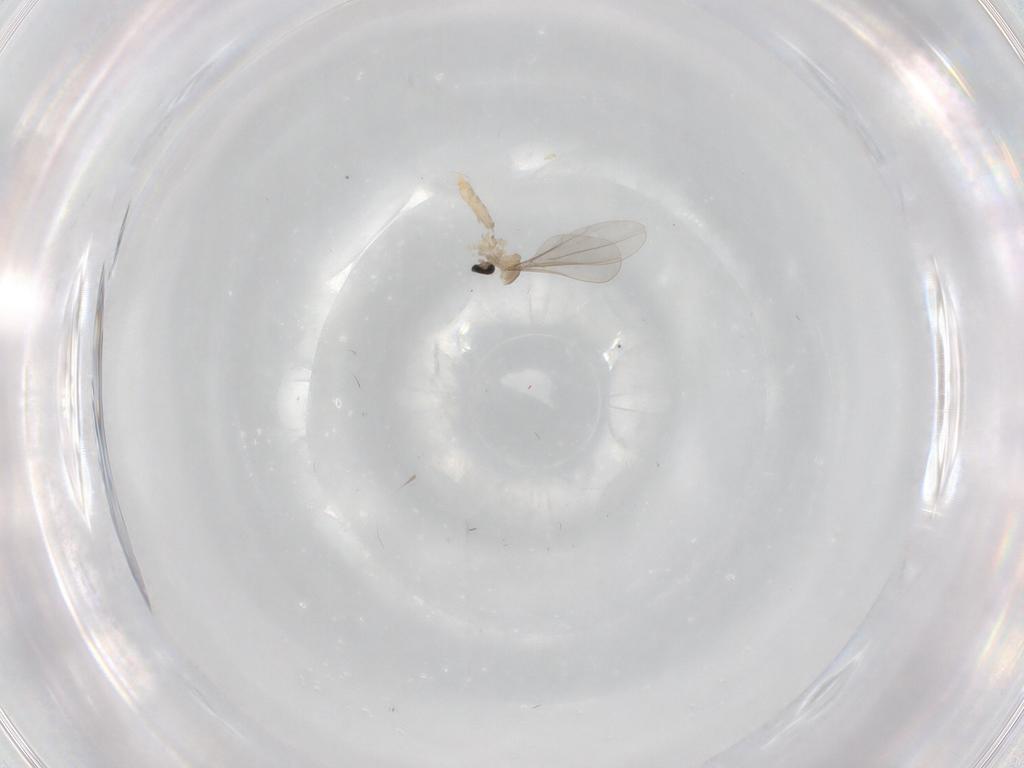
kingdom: Animalia
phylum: Arthropoda
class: Insecta
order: Diptera
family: Cecidomyiidae
